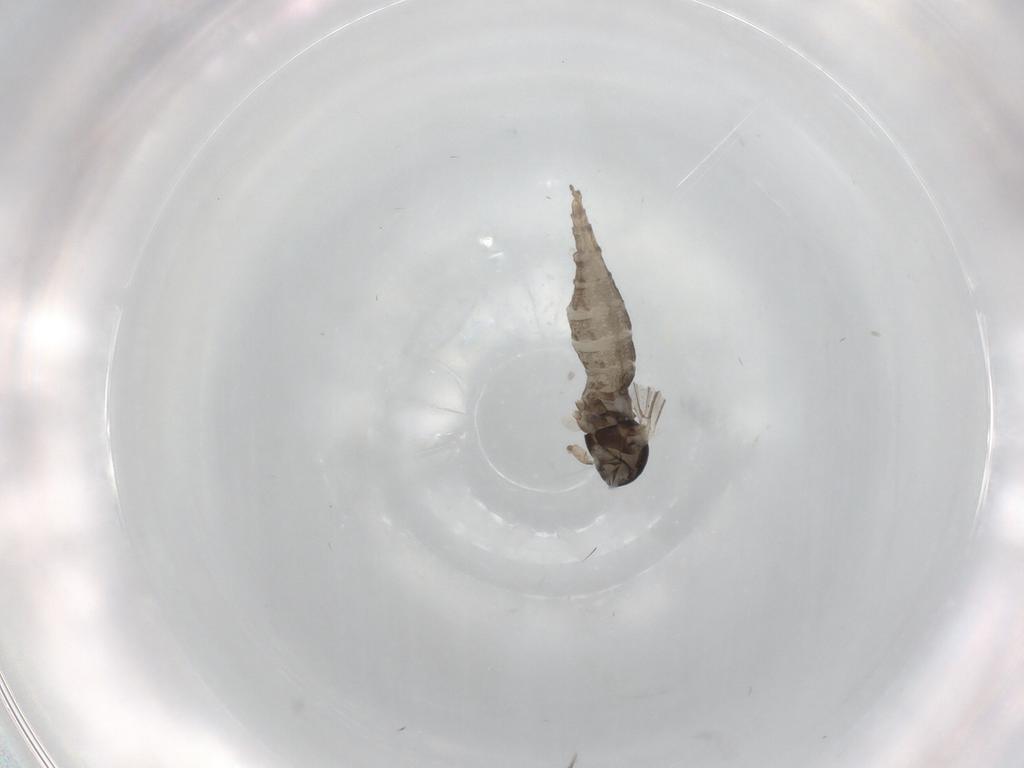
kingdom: Animalia
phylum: Arthropoda
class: Insecta
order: Diptera
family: Cecidomyiidae
